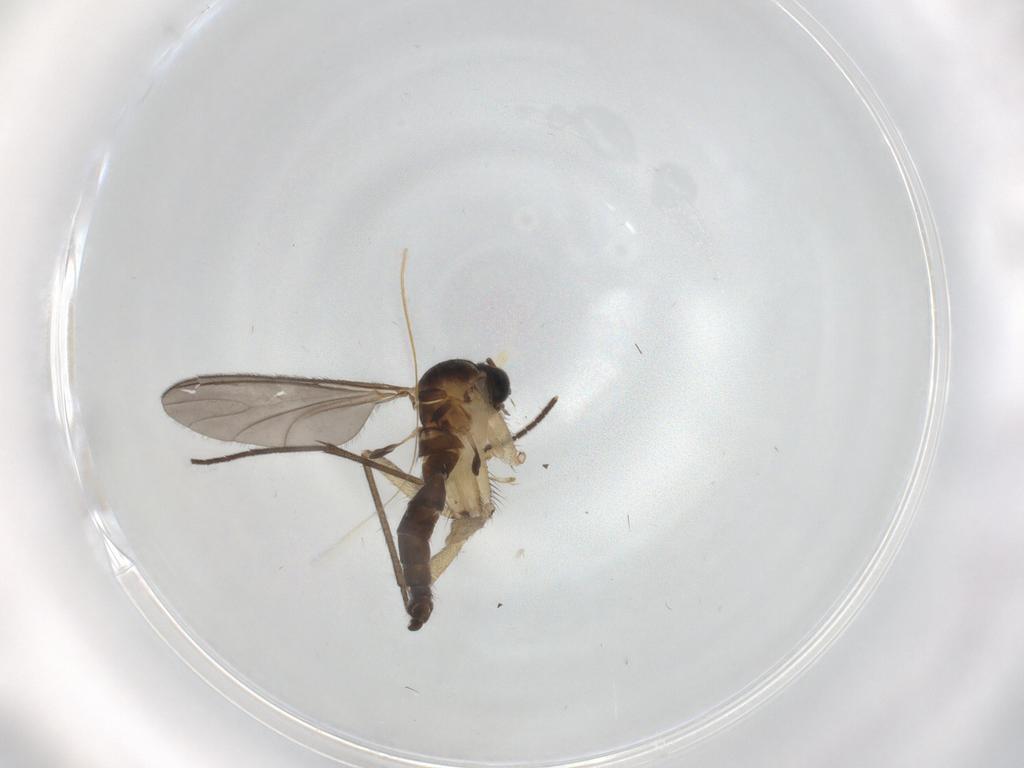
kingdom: Animalia
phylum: Arthropoda
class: Insecta
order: Diptera
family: Sciaridae
